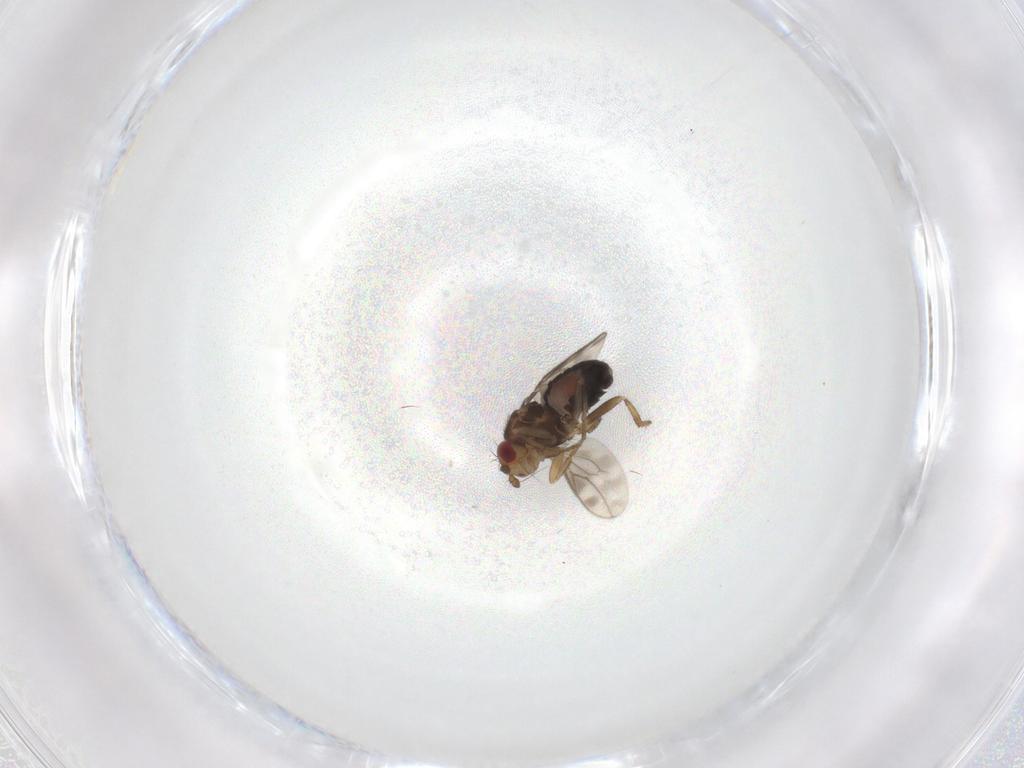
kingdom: Animalia
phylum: Arthropoda
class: Insecta
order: Diptera
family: Sphaeroceridae
